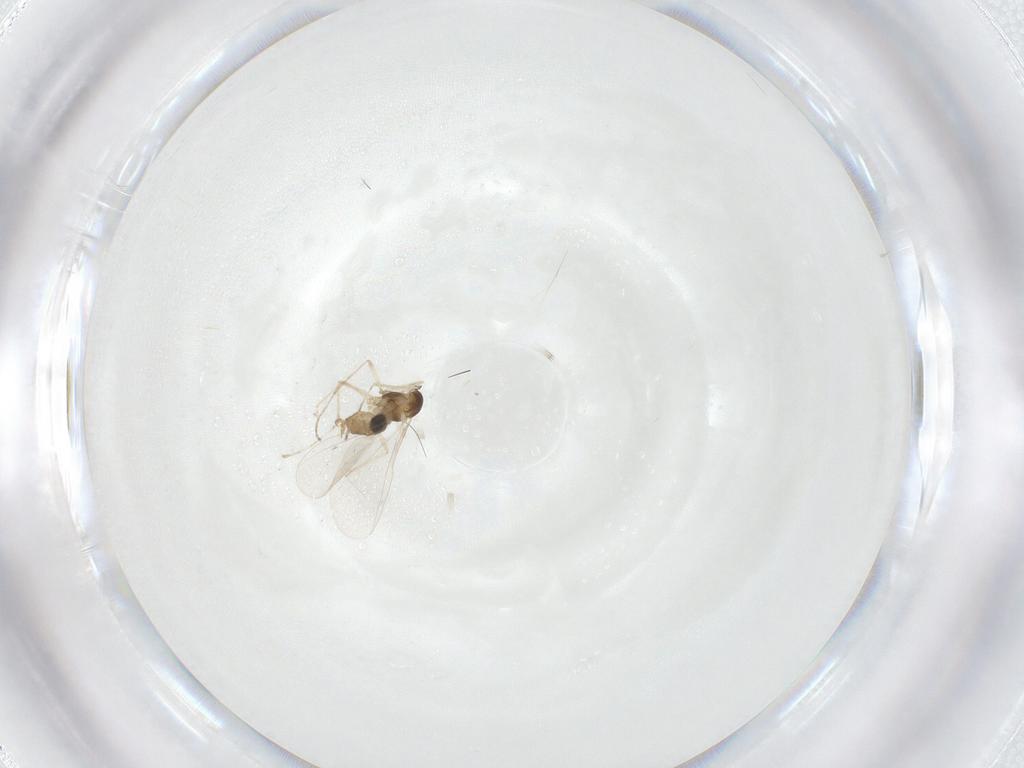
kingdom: Animalia
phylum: Arthropoda
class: Insecta
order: Diptera
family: Cecidomyiidae
